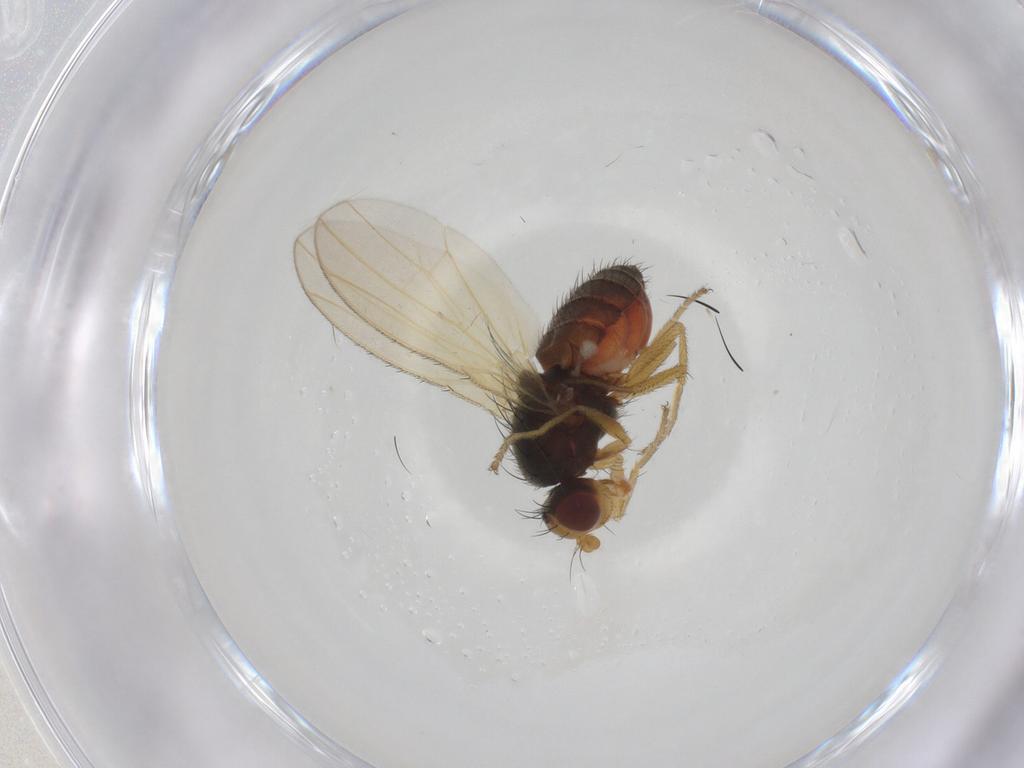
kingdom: Animalia
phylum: Arthropoda
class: Insecta
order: Diptera
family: Heleomyzidae
